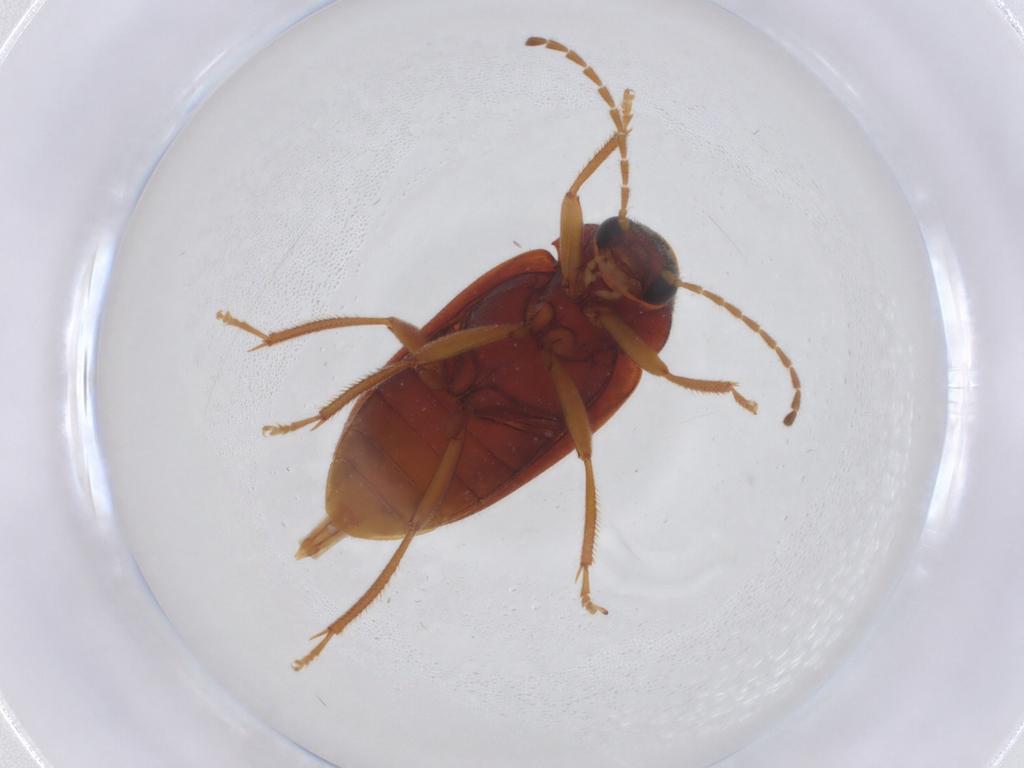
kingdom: Animalia
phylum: Arthropoda
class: Insecta
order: Coleoptera
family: Ptilodactylidae
